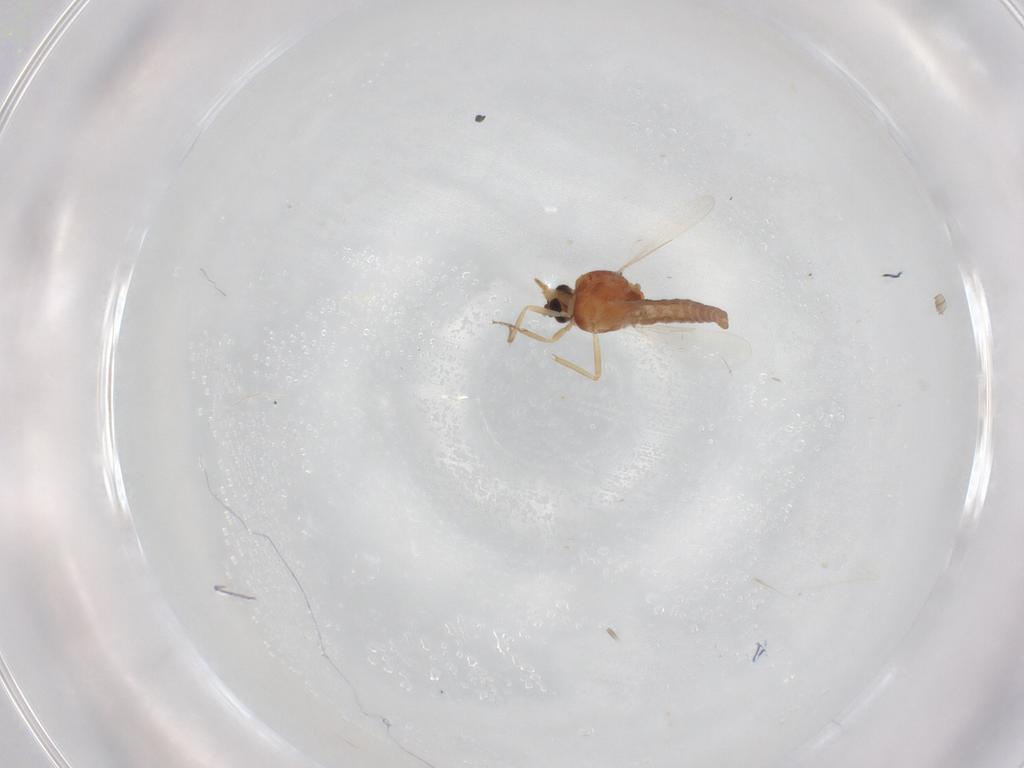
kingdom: Animalia
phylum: Arthropoda
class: Insecta
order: Diptera
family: Ceratopogonidae
